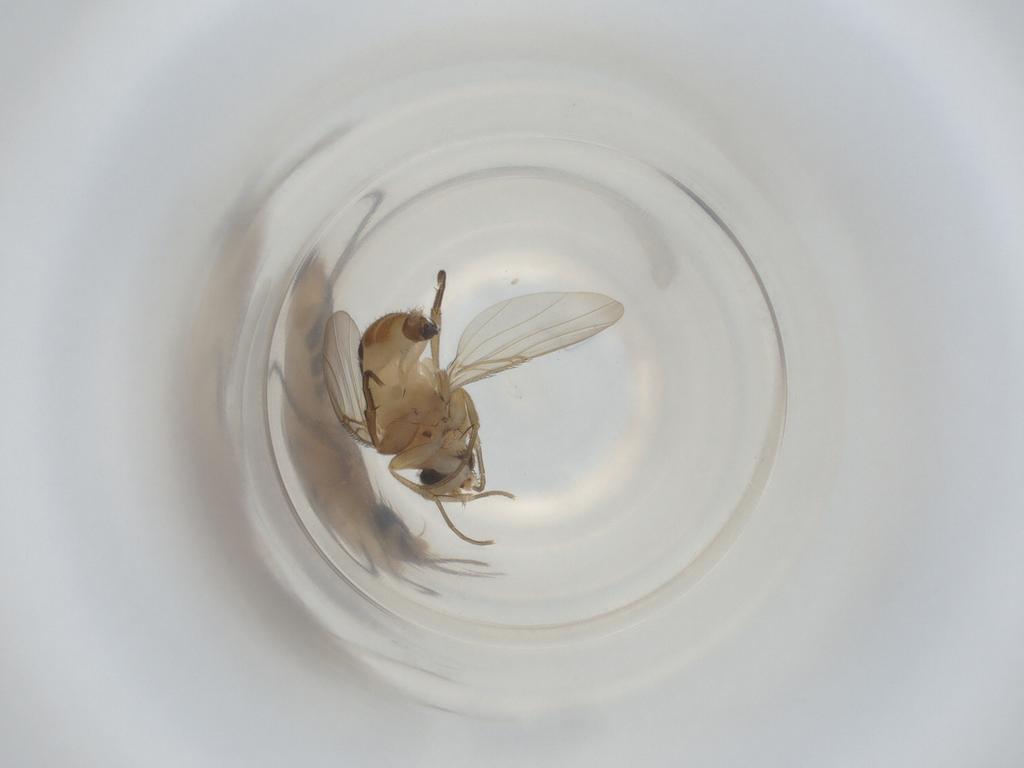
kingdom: Animalia
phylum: Arthropoda
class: Insecta
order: Diptera
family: Phoridae
